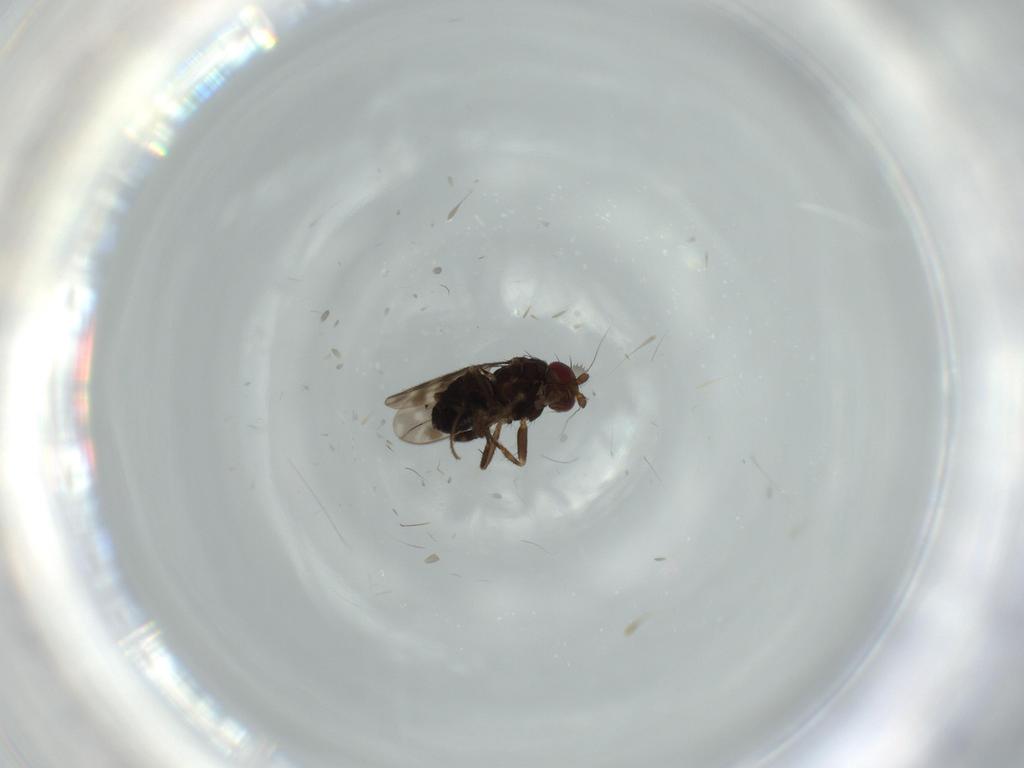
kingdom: Animalia
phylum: Arthropoda
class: Insecta
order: Diptera
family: Sphaeroceridae
